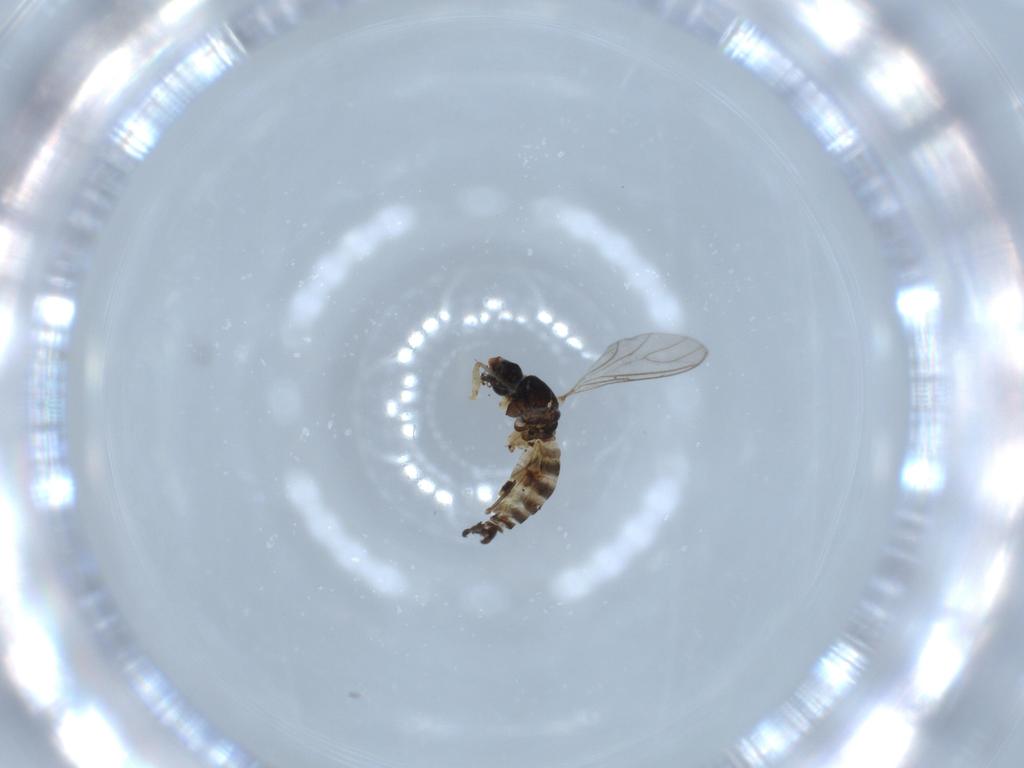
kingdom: Animalia
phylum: Arthropoda
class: Insecta
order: Diptera
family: Sciaridae
